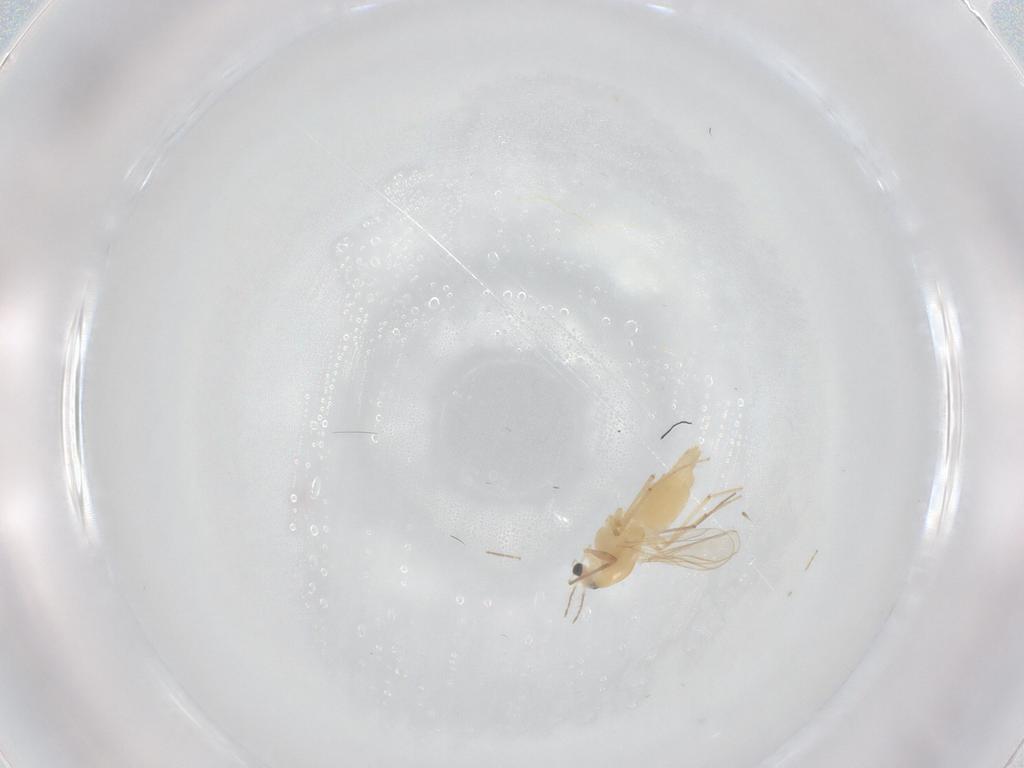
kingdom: Animalia
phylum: Arthropoda
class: Insecta
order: Diptera
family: Chironomidae
